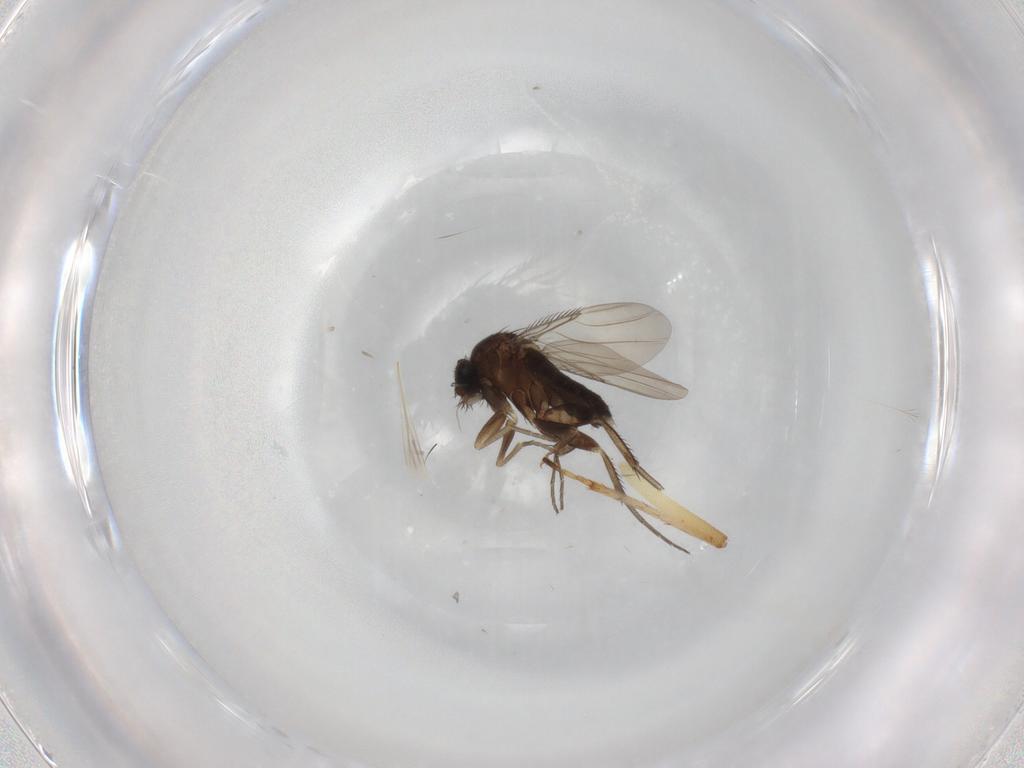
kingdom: Animalia
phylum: Arthropoda
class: Insecta
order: Diptera
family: Phoridae
